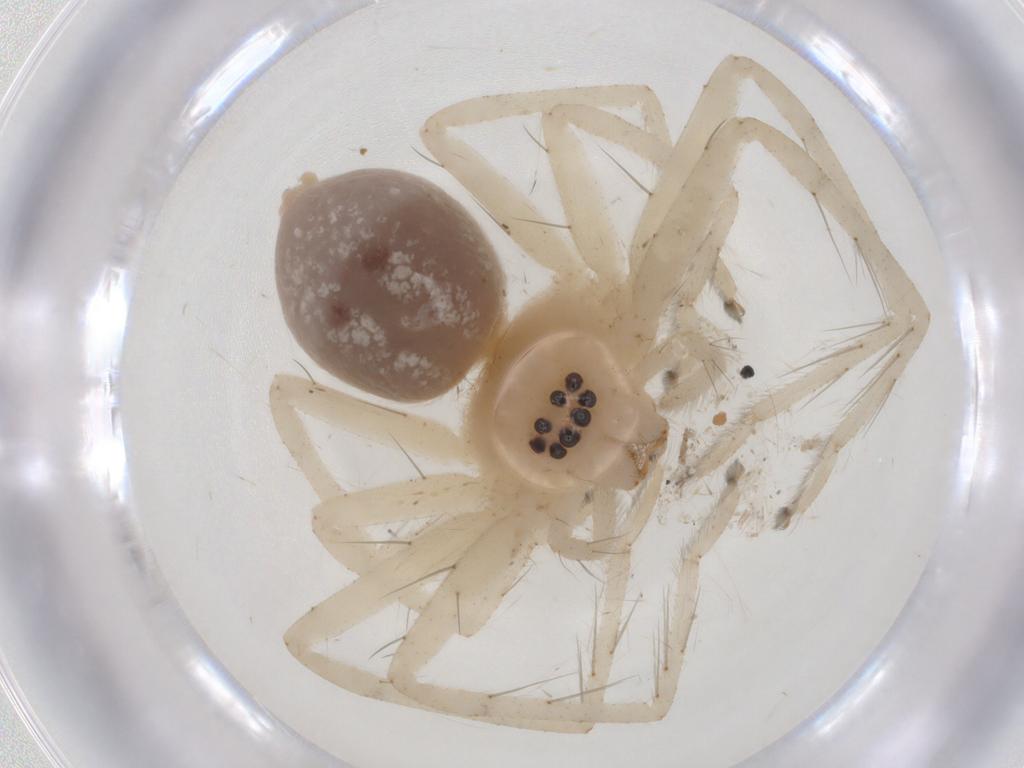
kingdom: Animalia
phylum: Arthropoda
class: Arachnida
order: Araneae
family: Sparassidae
